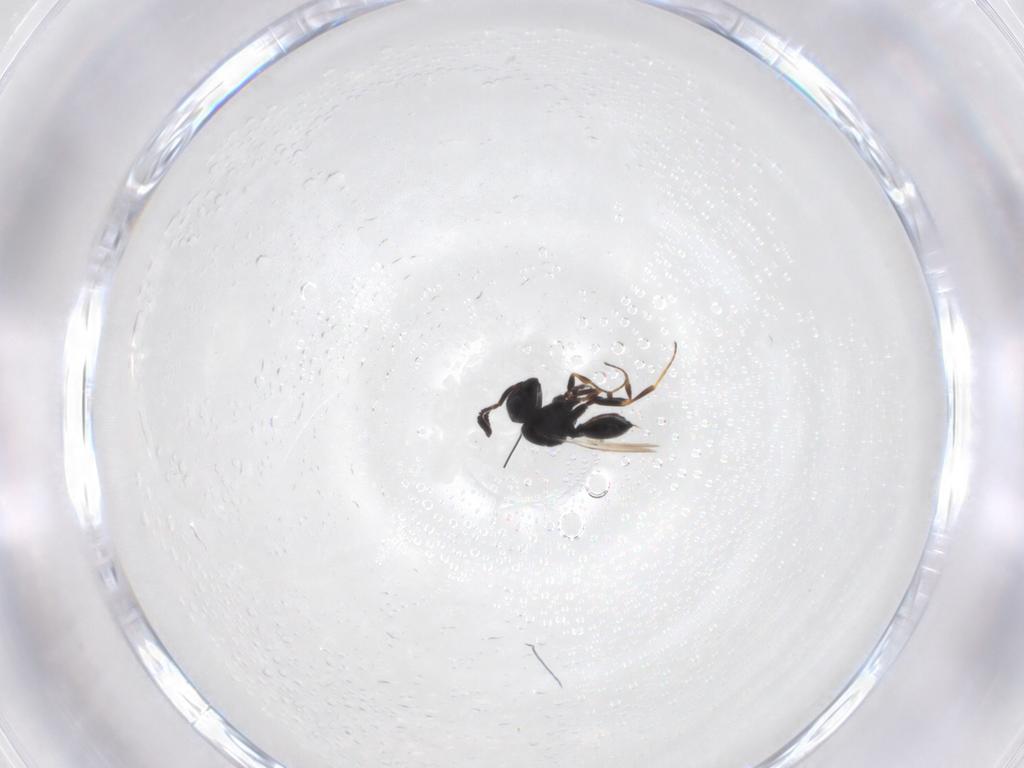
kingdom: Animalia
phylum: Arthropoda
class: Insecta
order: Hymenoptera
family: Scelionidae
